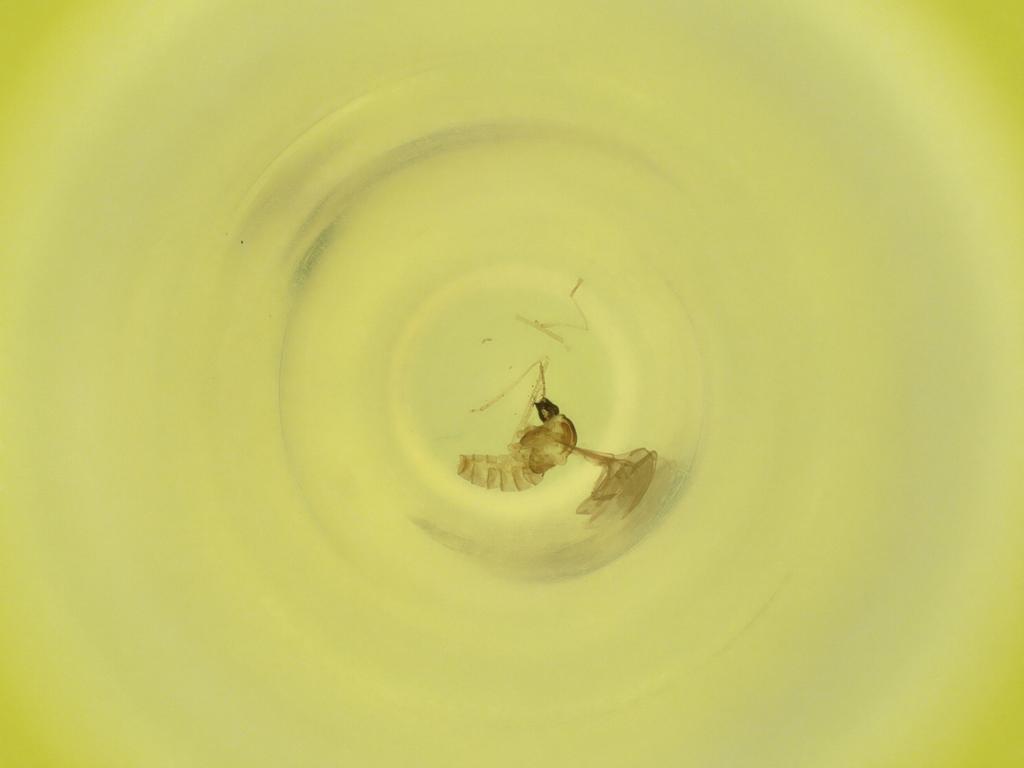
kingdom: Animalia
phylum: Arthropoda
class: Insecta
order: Diptera
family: Cecidomyiidae
